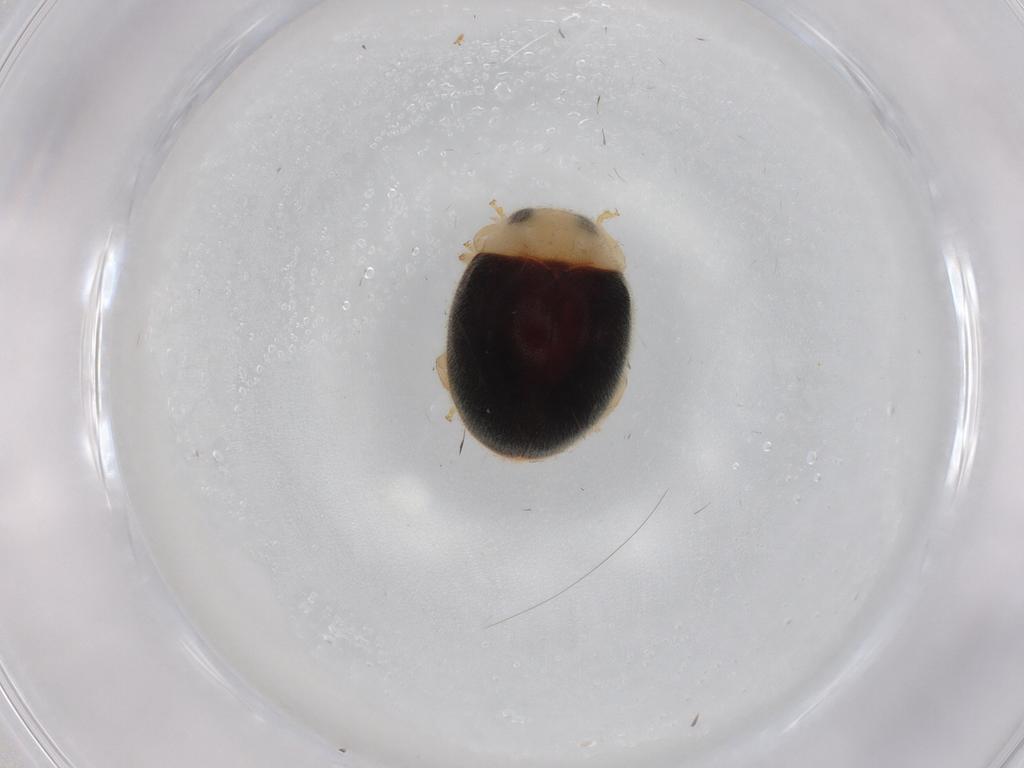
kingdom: Animalia
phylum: Arthropoda
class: Insecta
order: Coleoptera
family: Coccinellidae
